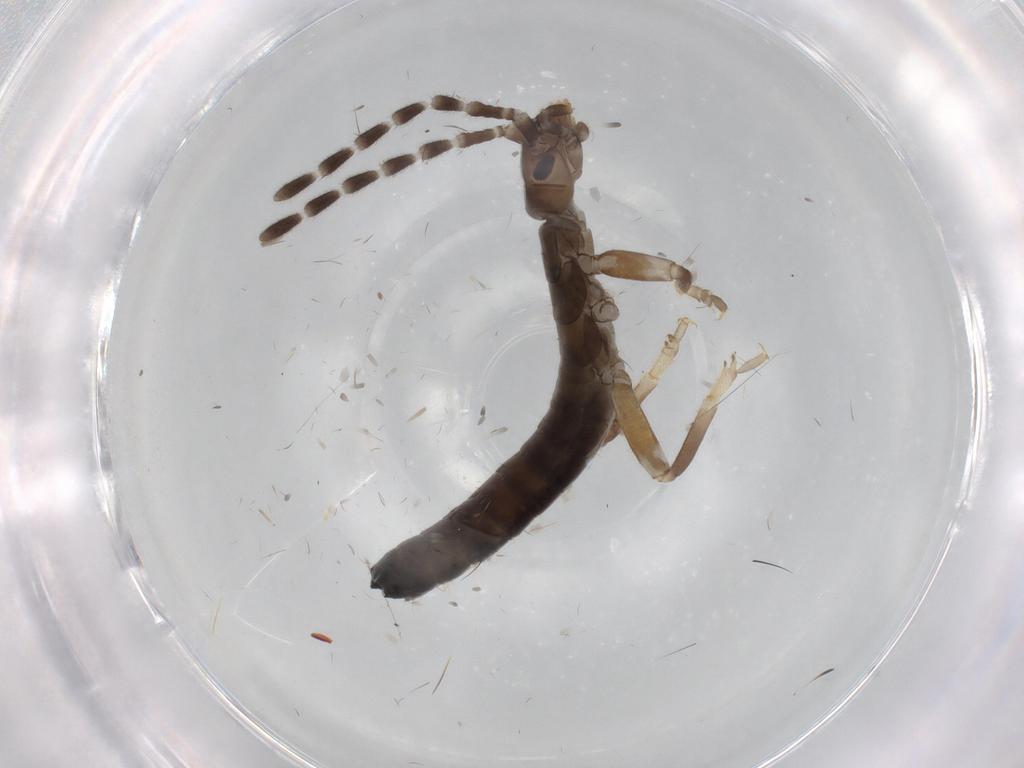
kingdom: Animalia
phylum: Arthropoda
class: Insecta
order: Dermaptera
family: Forficulidae
